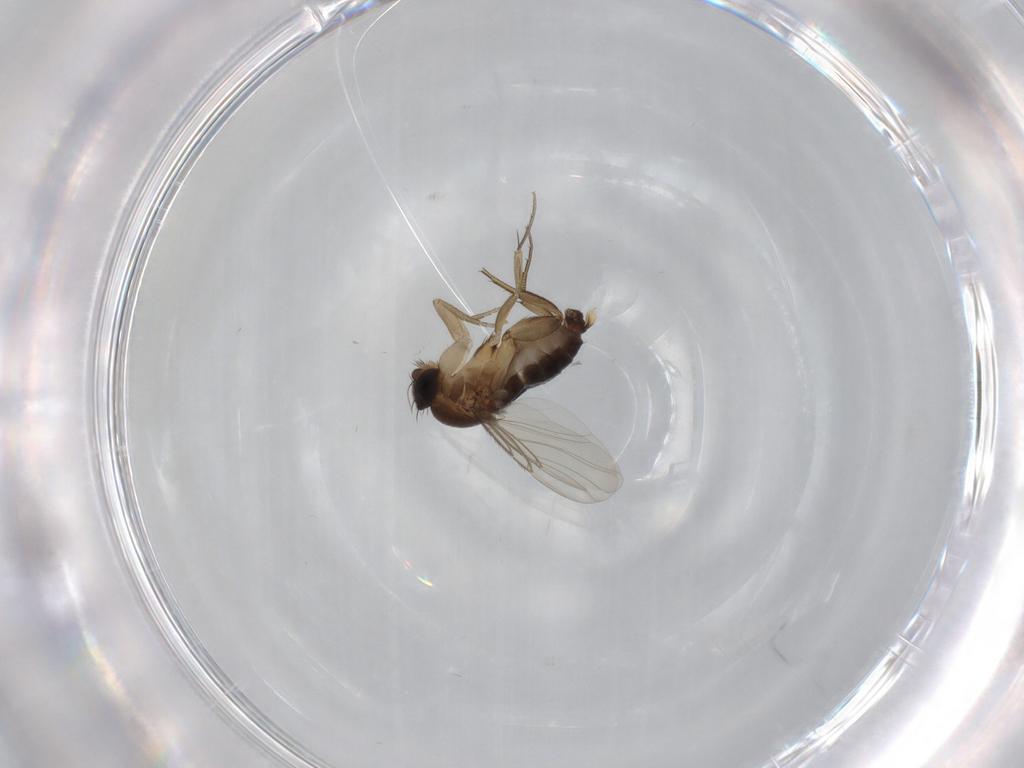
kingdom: Animalia
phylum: Arthropoda
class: Insecta
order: Diptera
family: Phoridae
